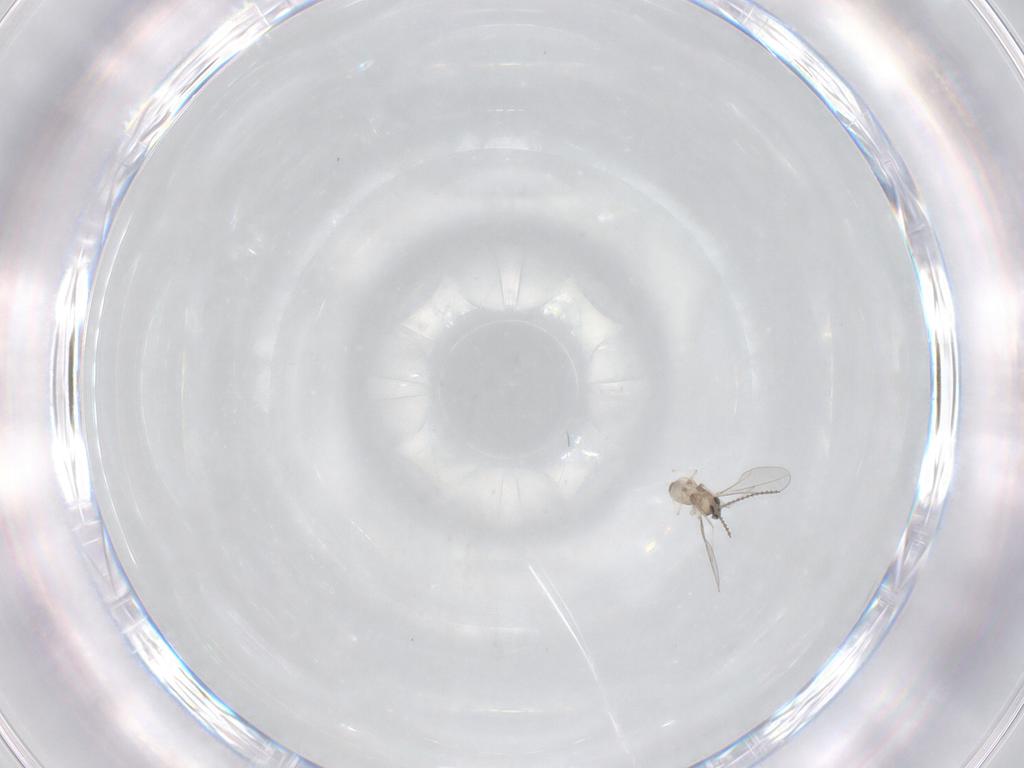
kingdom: Animalia
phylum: Arthropoda
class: Insecta
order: Diptera
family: Cecidomyiidae
